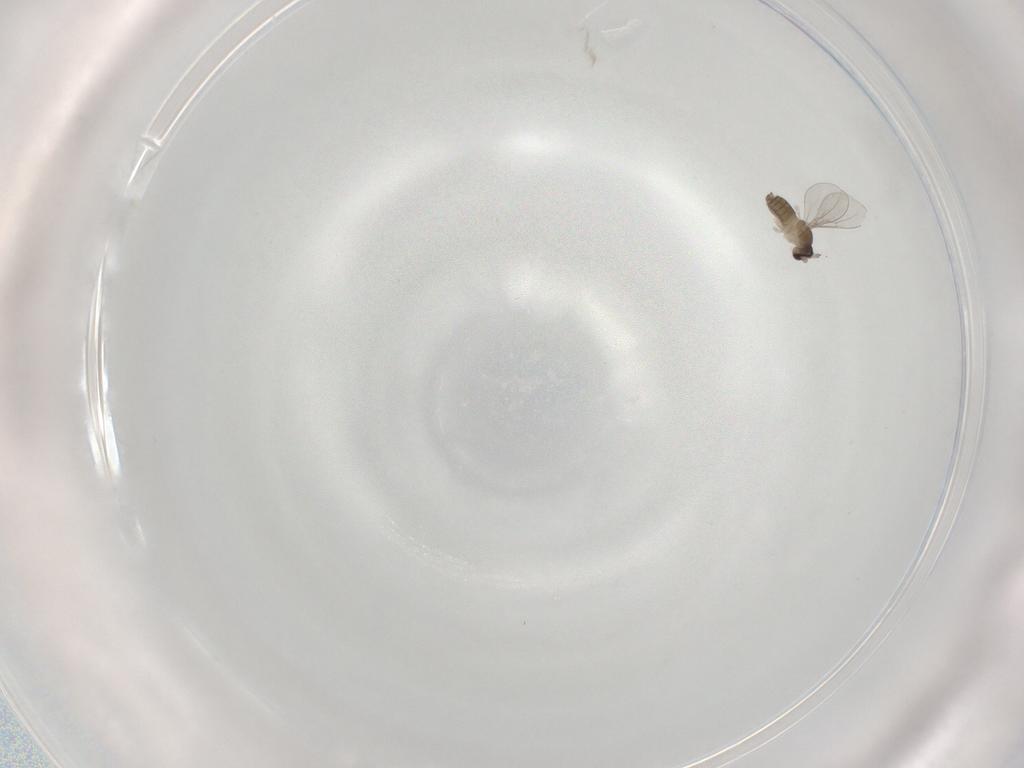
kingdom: Animalia
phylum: Arthropoda
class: Insecta
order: Diptera
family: Cecidomyiidae
